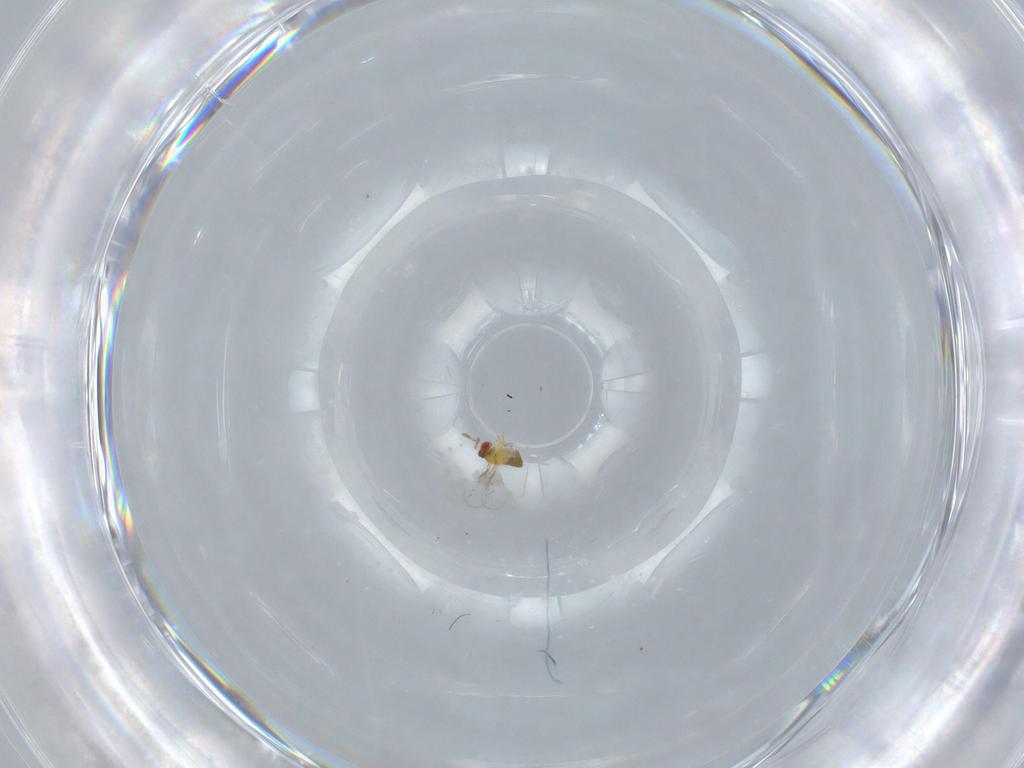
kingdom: Animalia
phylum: Arthropoda
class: Insecta
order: Hymenoptera
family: Trichogrammatidae
